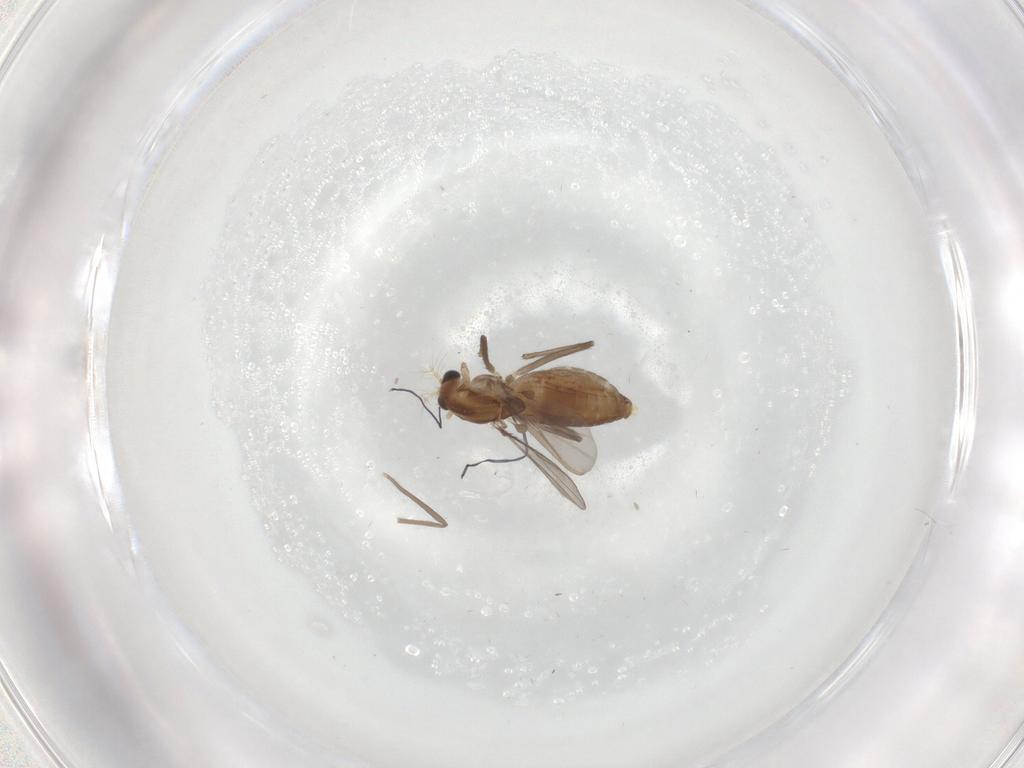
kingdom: Animalia
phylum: Arthropoda
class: Insecta
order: Diptera
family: Chironomidae
